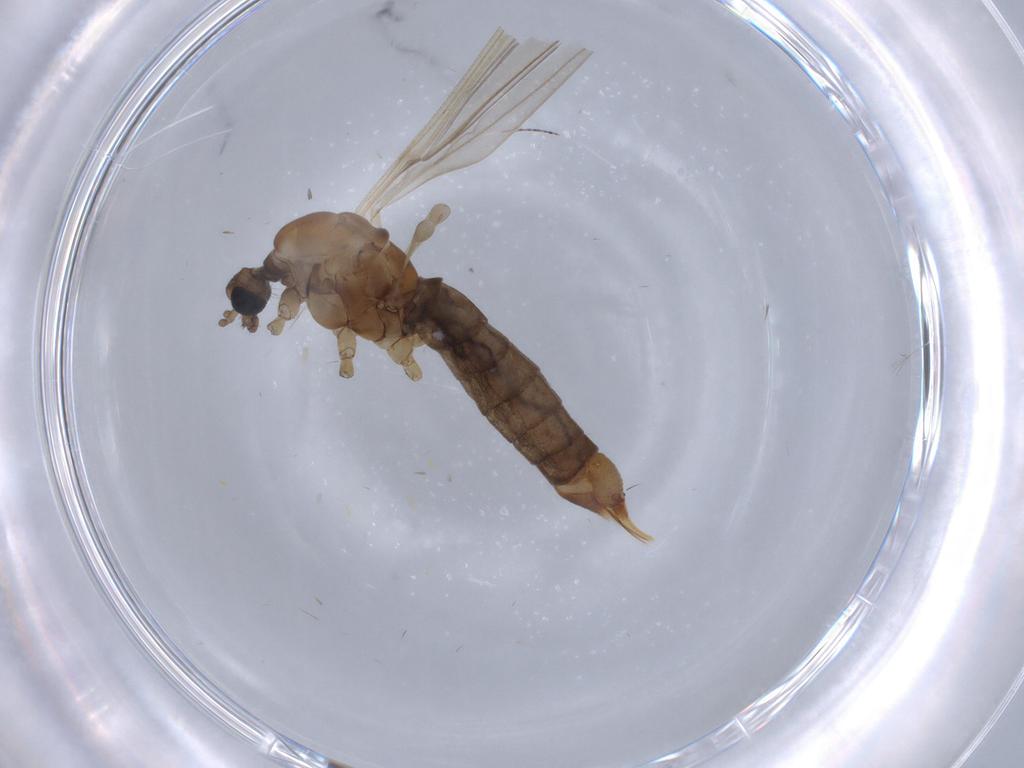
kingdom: Animalia
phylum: Arthropoda
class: Insecta
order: Diptera
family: Limoniidae
